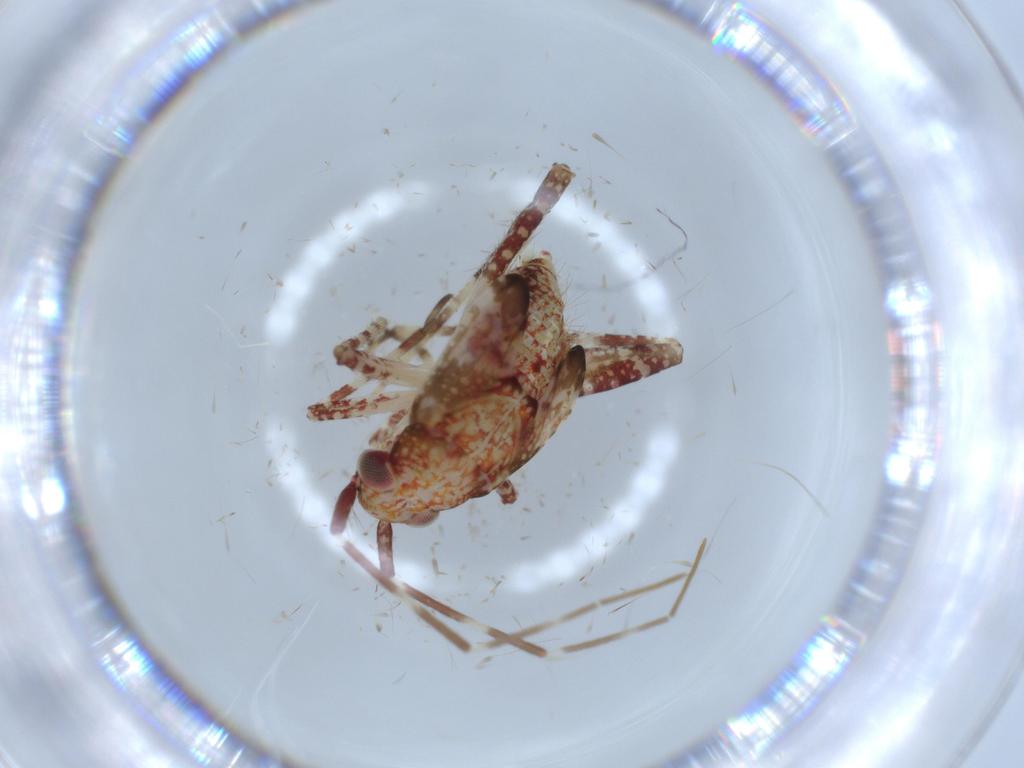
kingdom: Animalia
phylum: Arthropoda
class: Insecta
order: Hemiptera
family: Miridae
